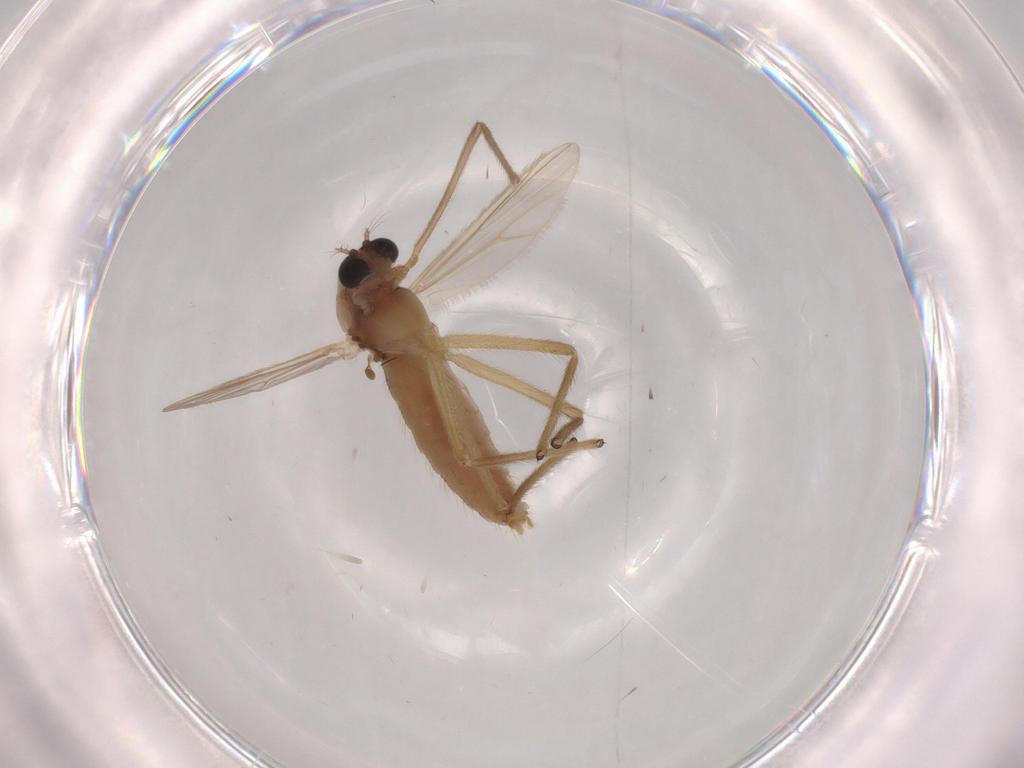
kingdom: Animalia
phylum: Arthropoda
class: Insecta
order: Diptera
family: Chironomidae
